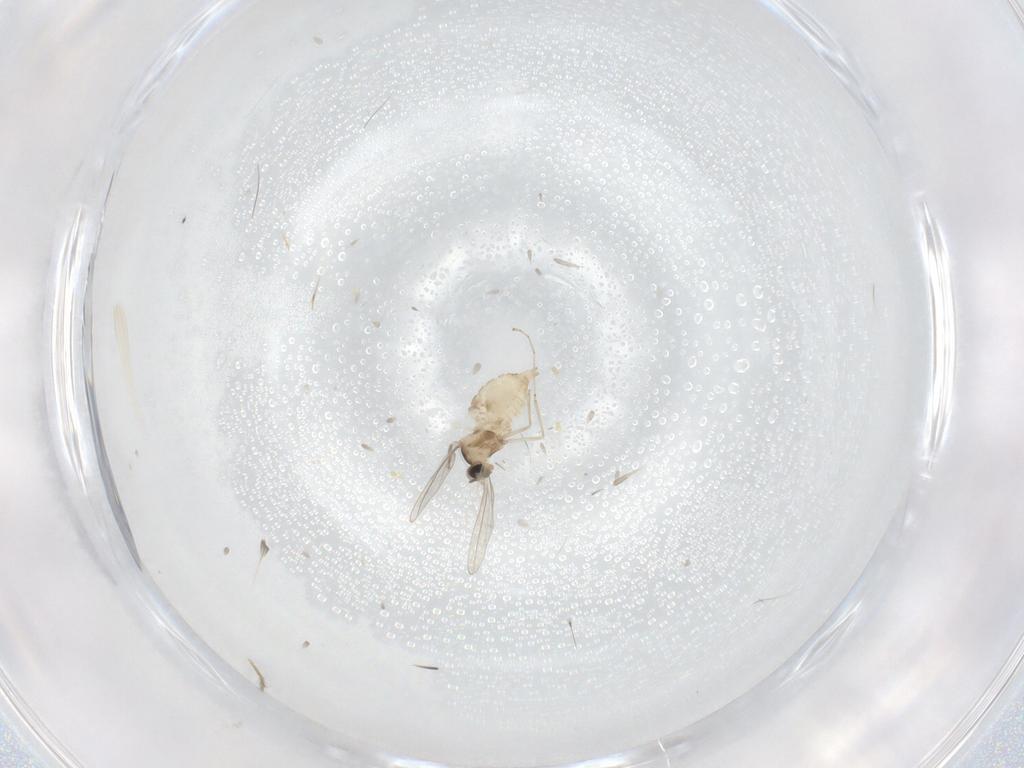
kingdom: Animalia
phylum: Arthropoda
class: Insecta
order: Diptera
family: Cecidomyiidae
